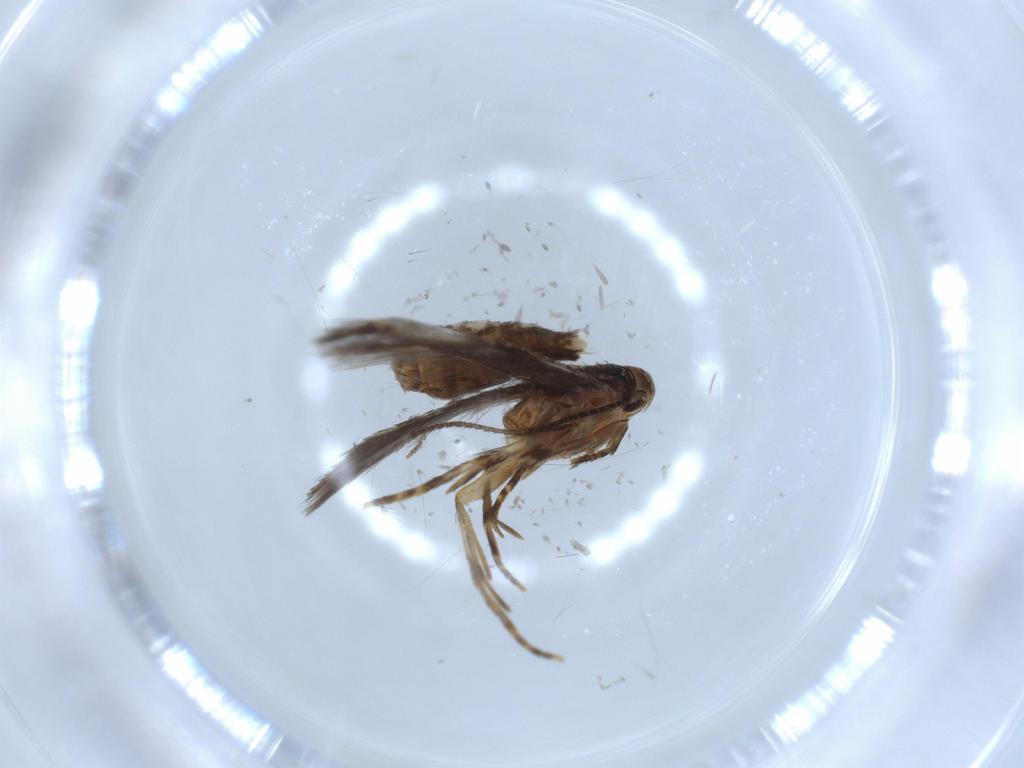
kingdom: Animalia
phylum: Arthropoda
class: Insecta
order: Lepidoptera
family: Gelechiidae
